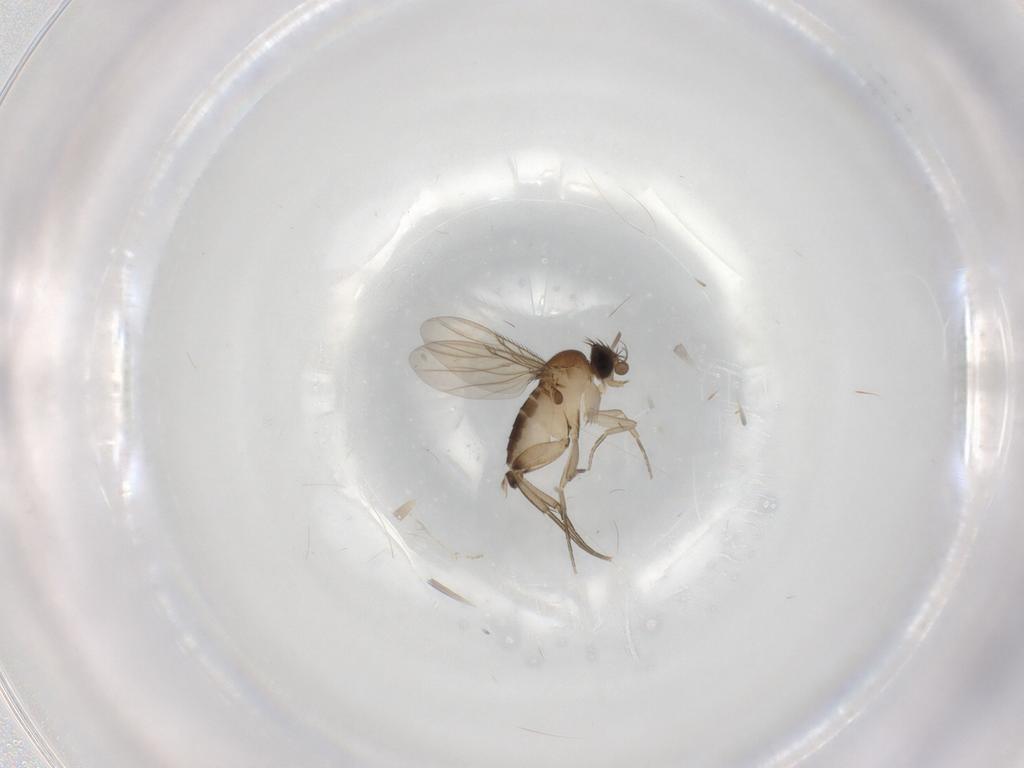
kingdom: Animalia
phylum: Arthropoda
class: Insecta
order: Diptera
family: Phoridae
